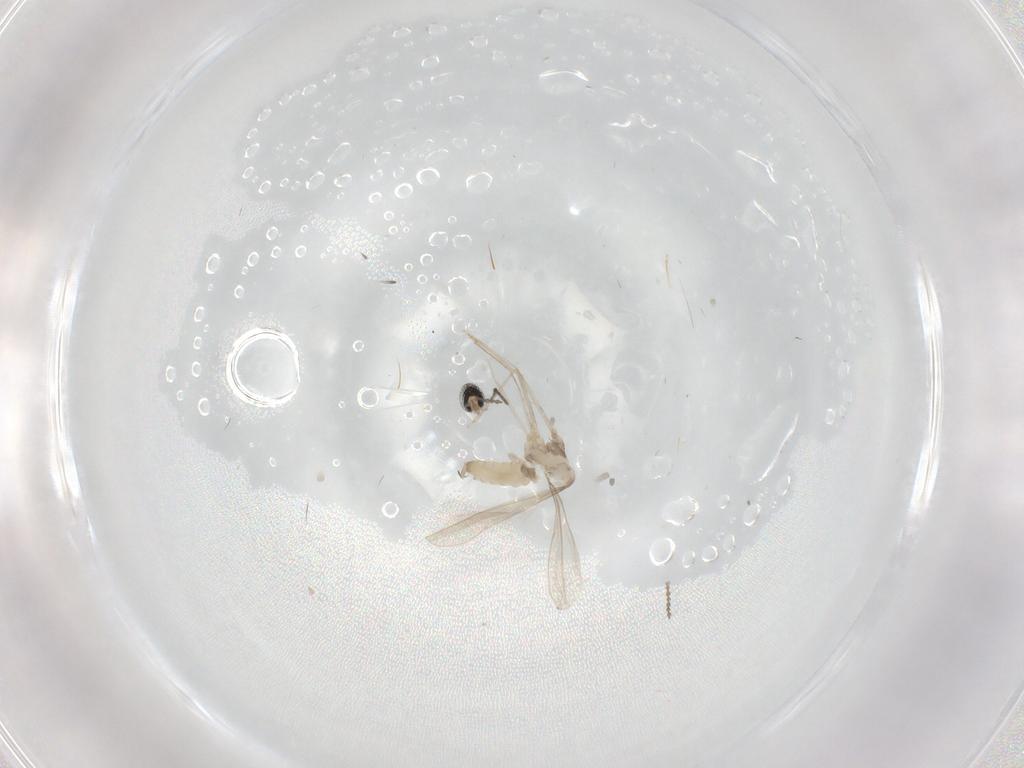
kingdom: Animalia
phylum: Arthropoda
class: Insecta
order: Diptera
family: Cecidomyiidae
